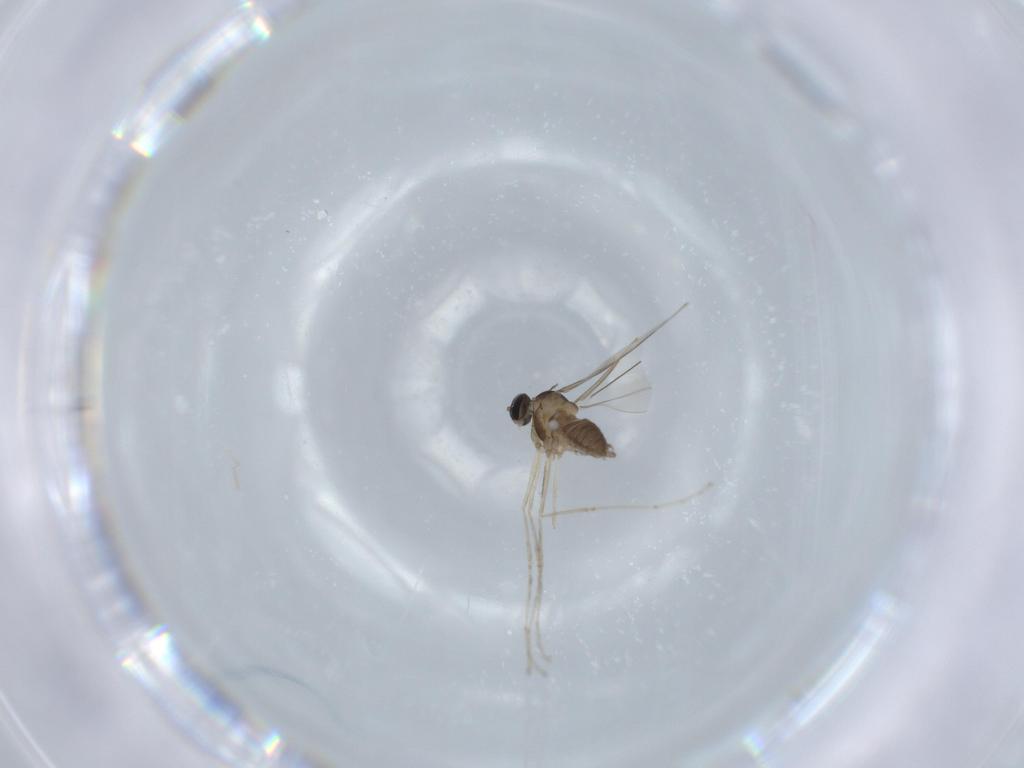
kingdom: Animalia
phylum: Arthropoda
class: Insecta
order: Diptera
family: Cecidomyiidae
